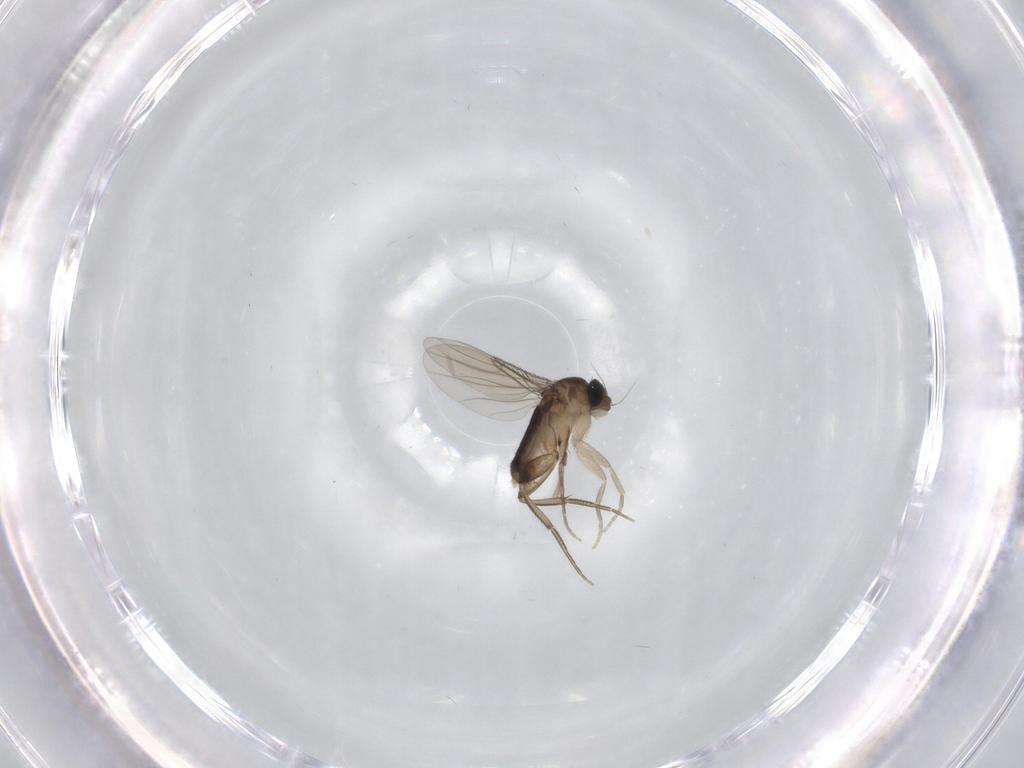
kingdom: Animalia
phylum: Arthropoda
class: Insecta
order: Diptera
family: Phoridae
